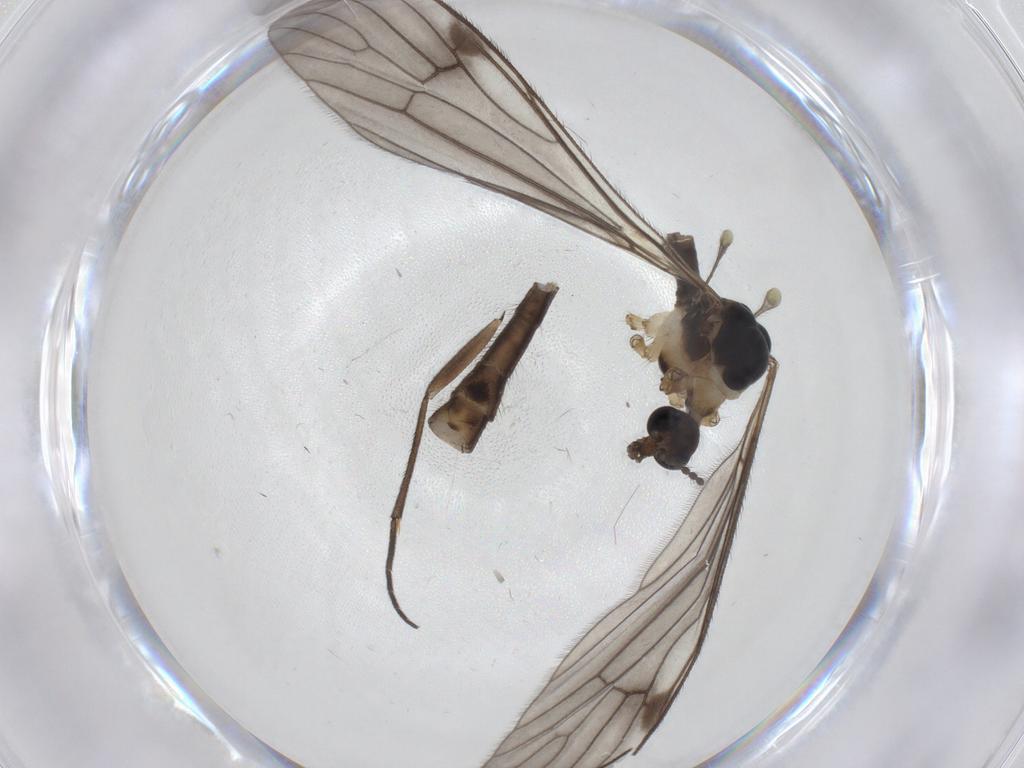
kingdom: Animalia
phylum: Arthropoda
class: Insecta
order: Diptera
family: Limoniidae
